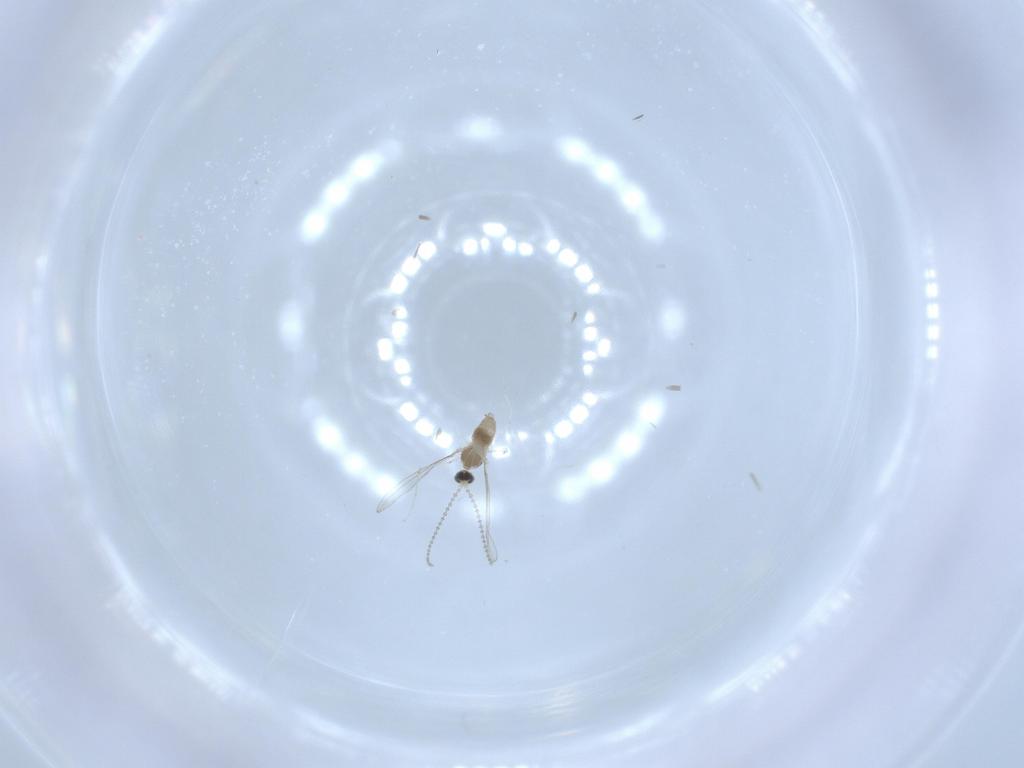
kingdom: Animalia
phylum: Arthropoda
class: Insecta
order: Diptera
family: Cecidomyiidae
